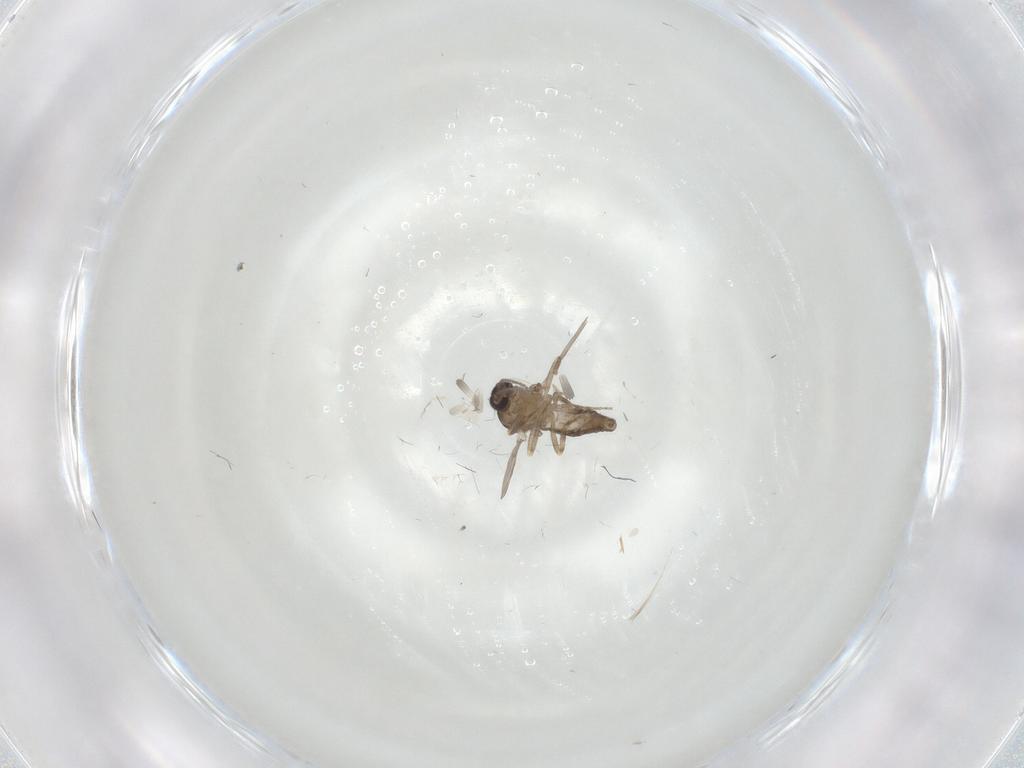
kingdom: Animalia
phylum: Arthropoda
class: Insecta
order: Diptera
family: Ceratopogonidae
